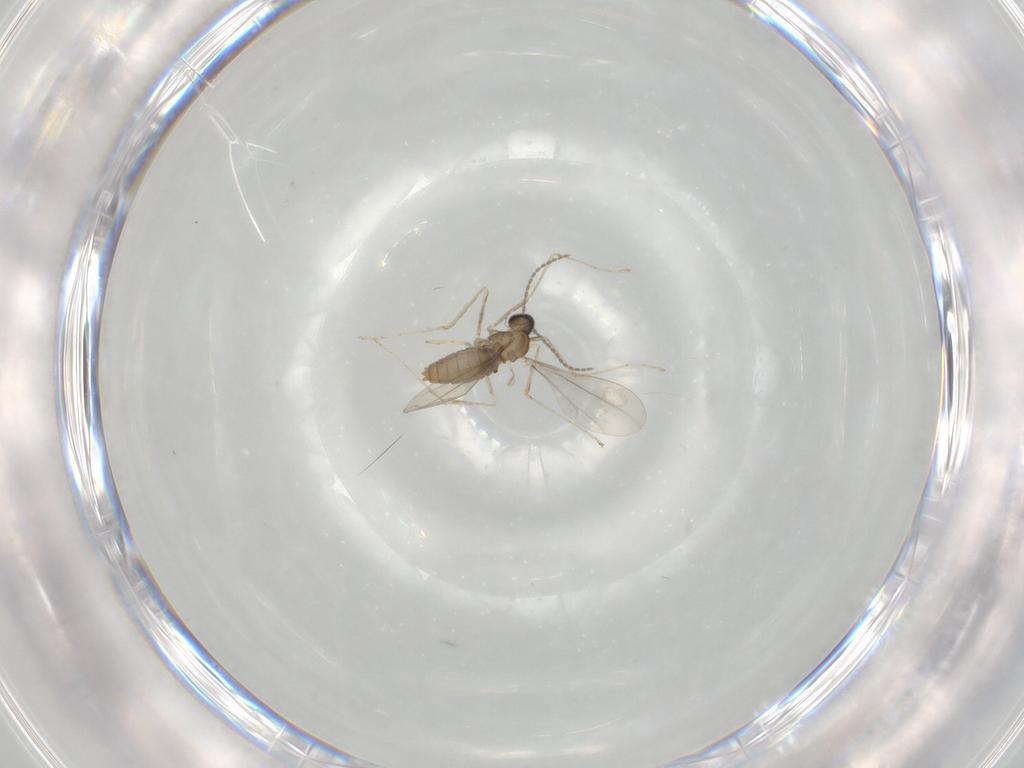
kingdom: Animalia
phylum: Arthropoda
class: Insecta
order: Diptera
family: Cecidomyiidae
